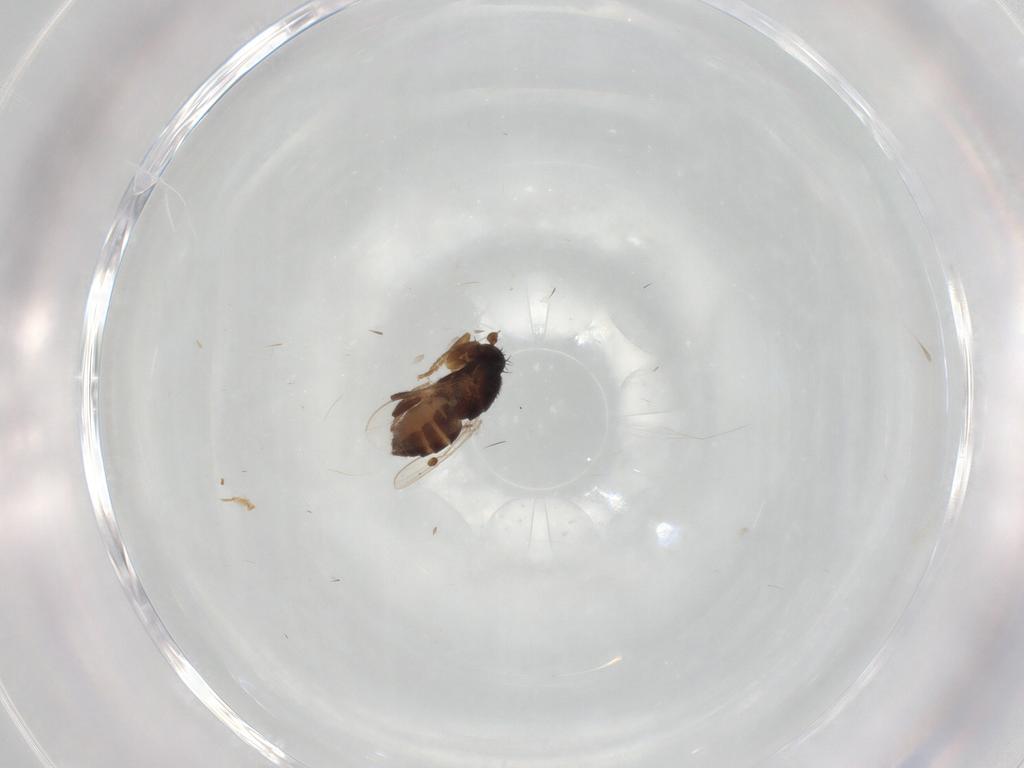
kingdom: Animalia
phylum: Arthropoda
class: Insecta
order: Diptera
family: Sphaeroceridae
